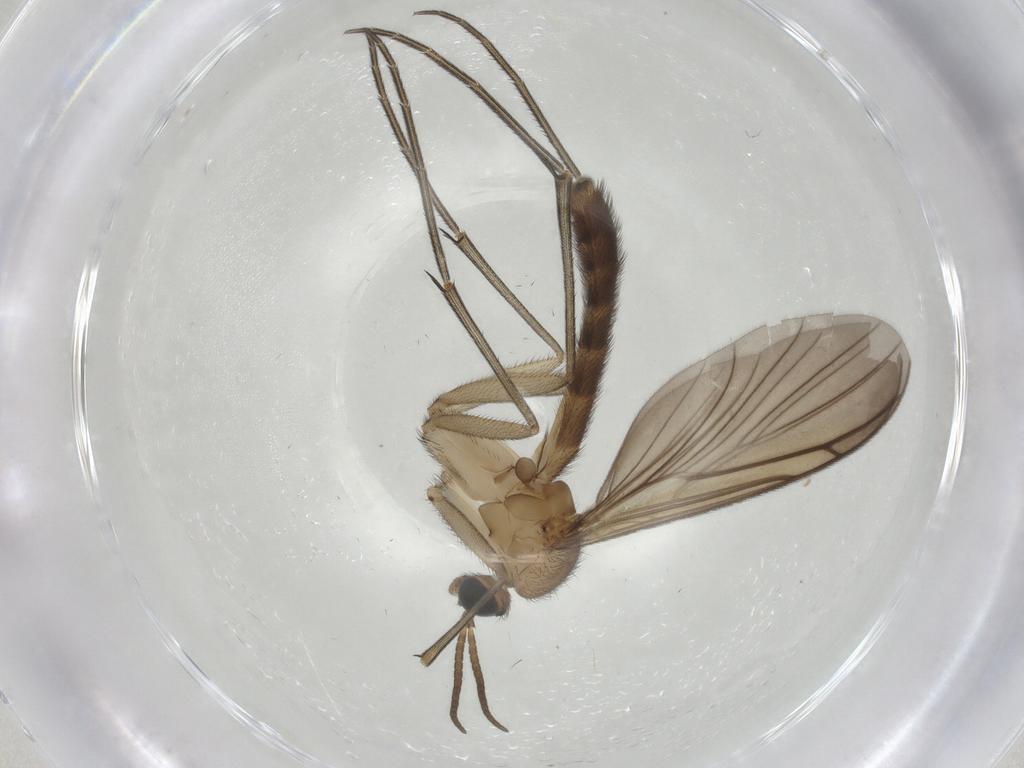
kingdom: Animalia
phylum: Arthropoda
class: Insecta
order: Diptera
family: Keroplatidae
